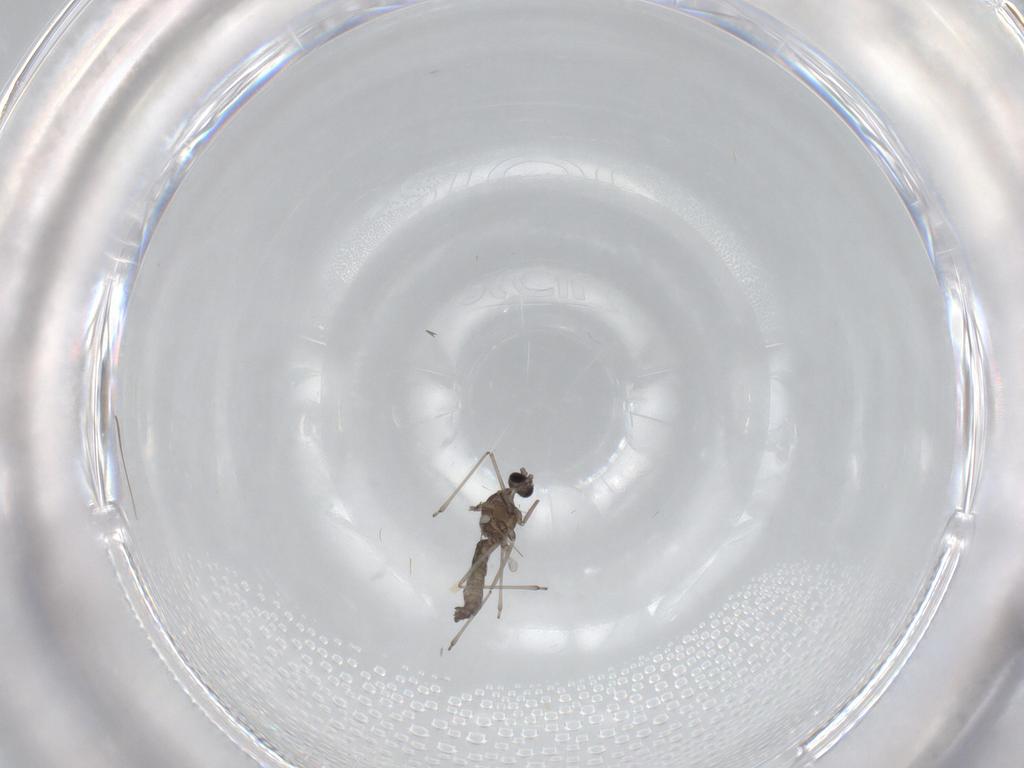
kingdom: Animalia
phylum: Arthropoda
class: Insecta
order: Diptera
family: Cecidomyiidae
